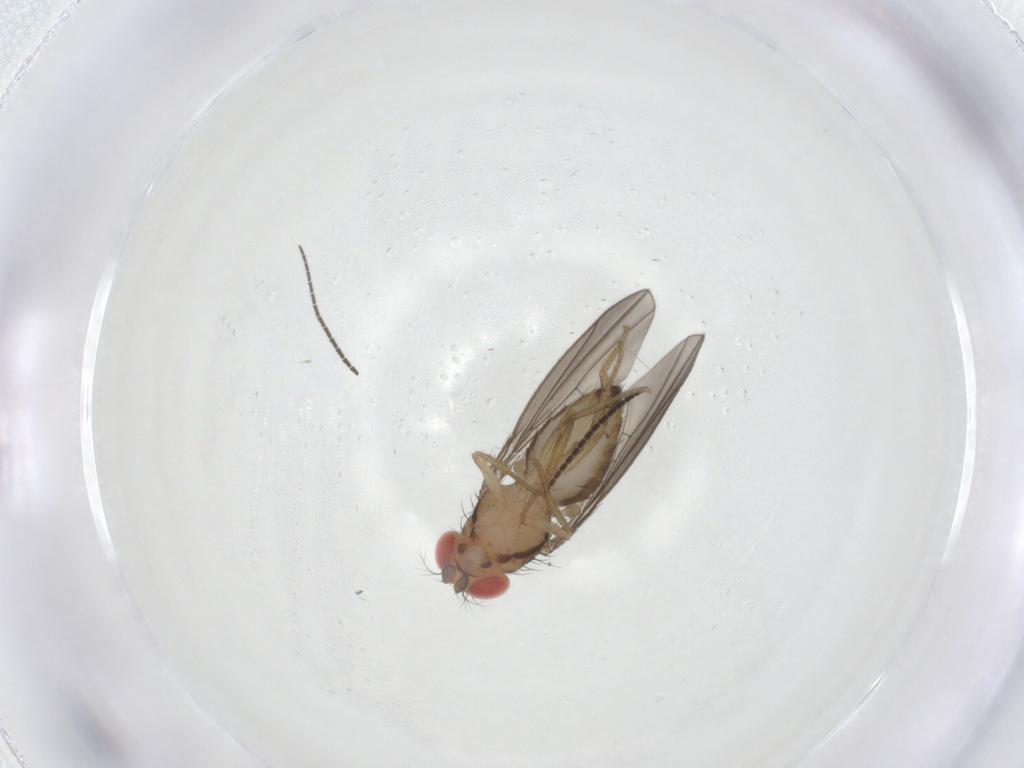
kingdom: Animalia
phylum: Arthropoda
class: Insecta
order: Diptera
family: Drosophilidae
